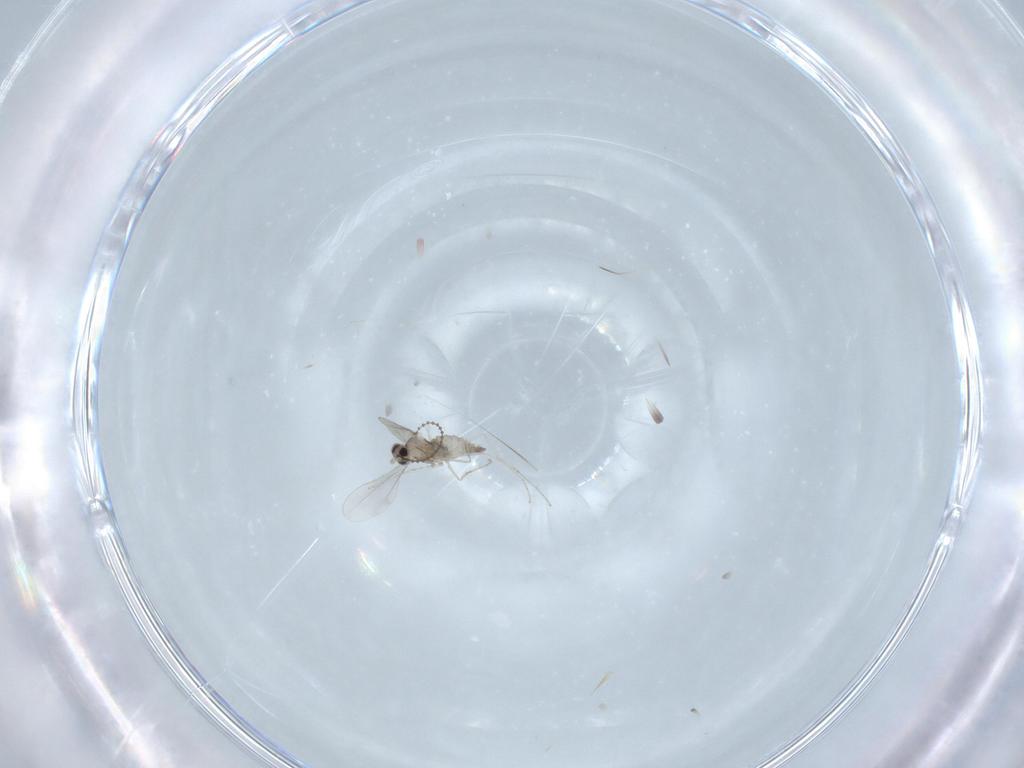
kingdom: Animalia
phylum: Arthropoda
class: Insecta
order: Diptera
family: Cecidomyiidae
